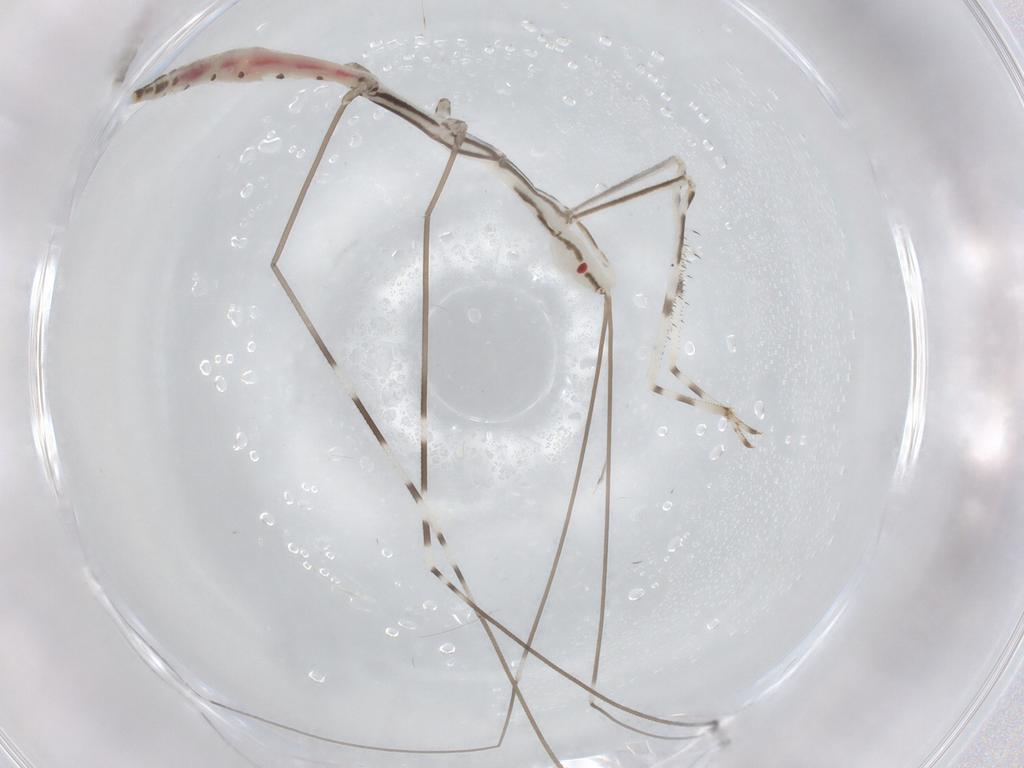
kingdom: Animalia
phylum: Arthropoda
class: Insecta
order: Hemiptera
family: Reduviidae
